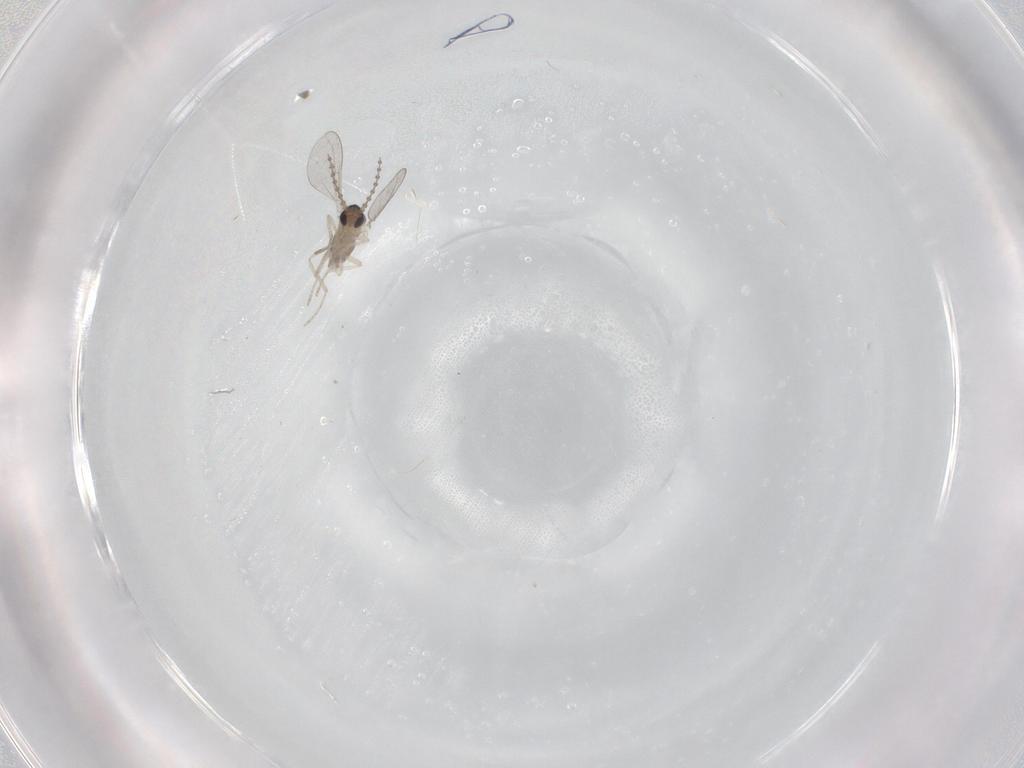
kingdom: Animalia
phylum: Arthropoda
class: Insecta
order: Diptera
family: Cecidomyiidae
